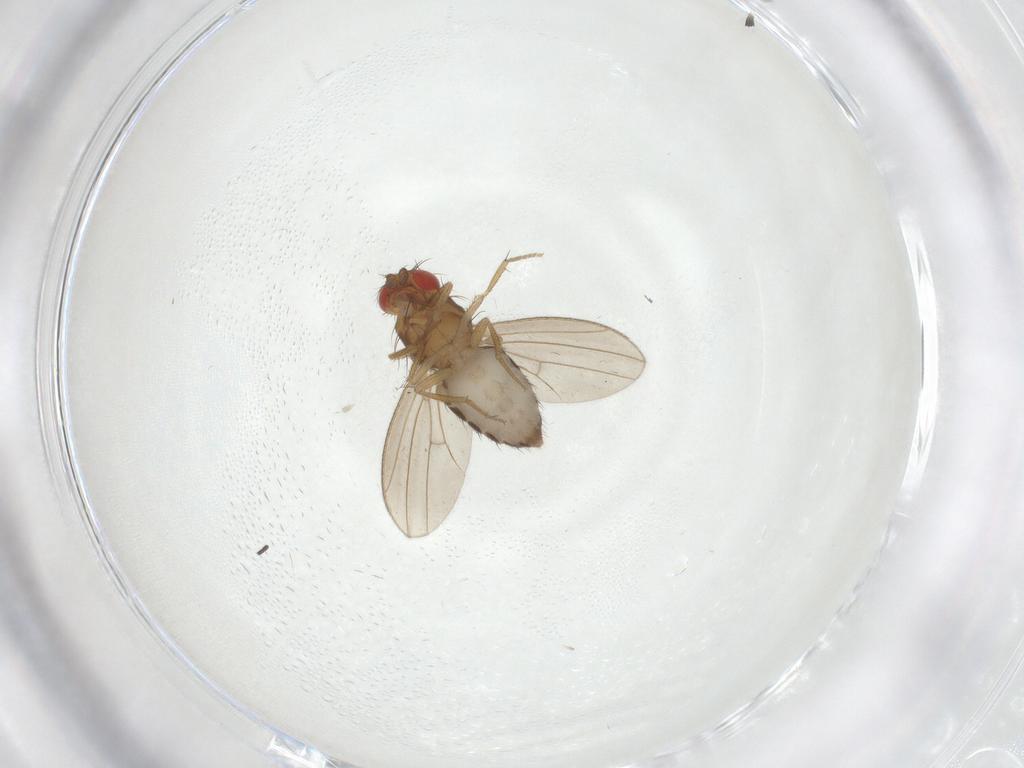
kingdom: Animalia
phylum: Arthropoda
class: Insecta
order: Diptera
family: Drosophilidae
